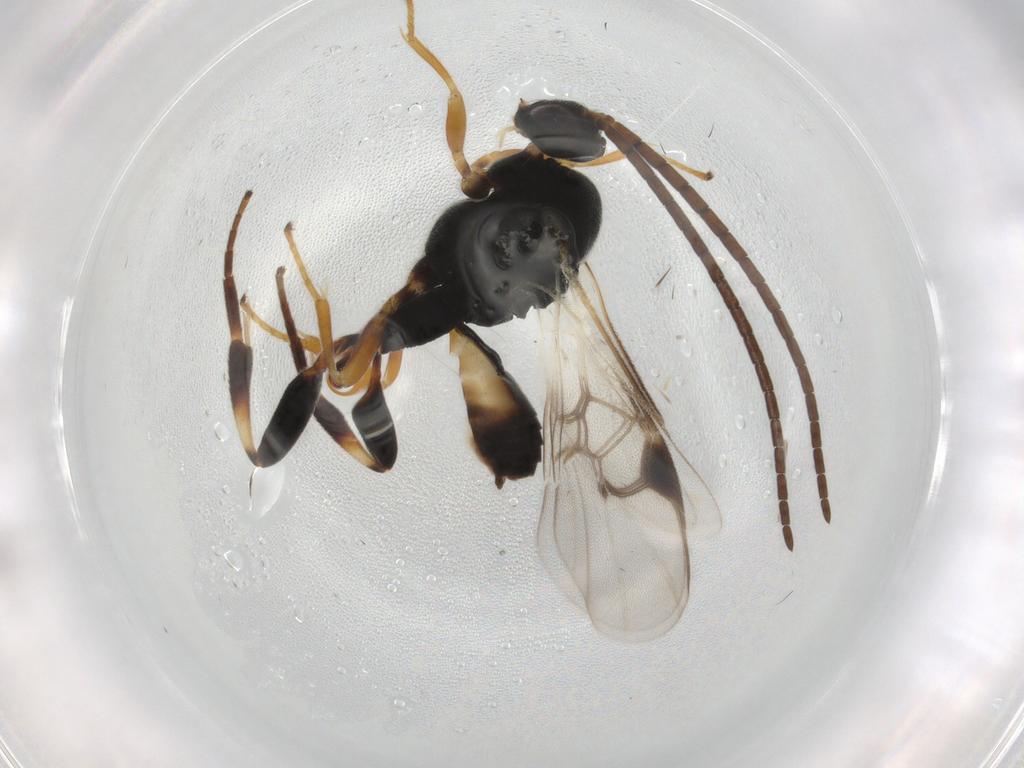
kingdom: Animalia
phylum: Arthropoda
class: Insecta
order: Hymenoptera
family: Braconidae
